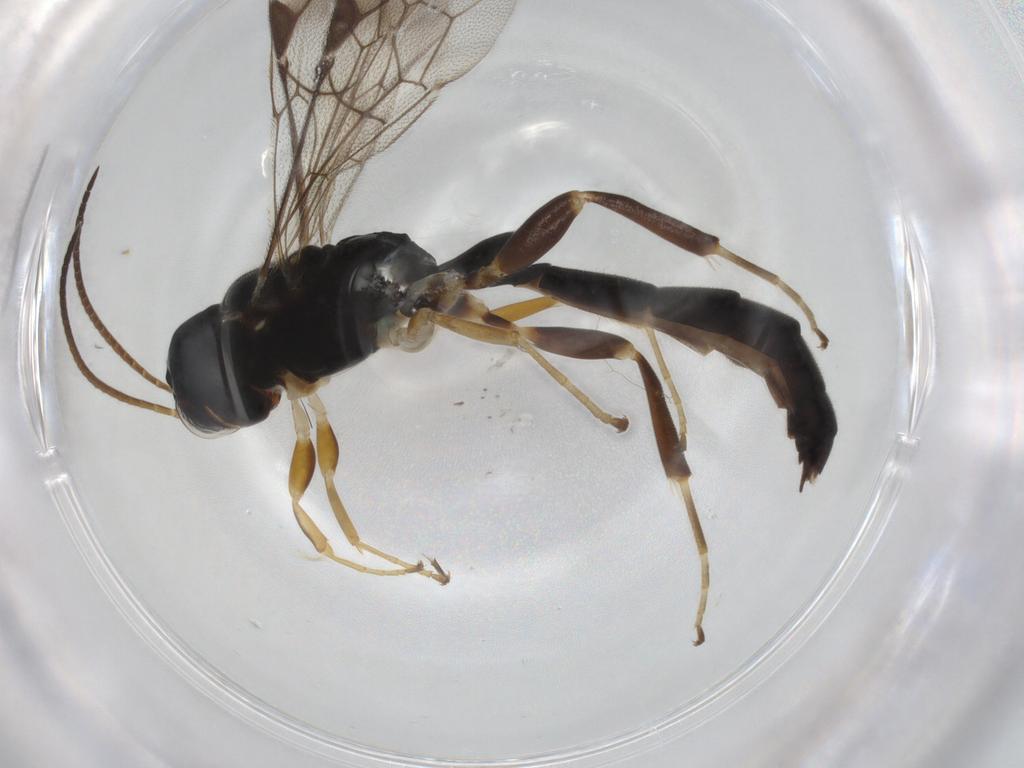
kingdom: Animalia
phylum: Arthropoda
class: Insecta
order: Hymenoptera
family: Ichneumonidae
